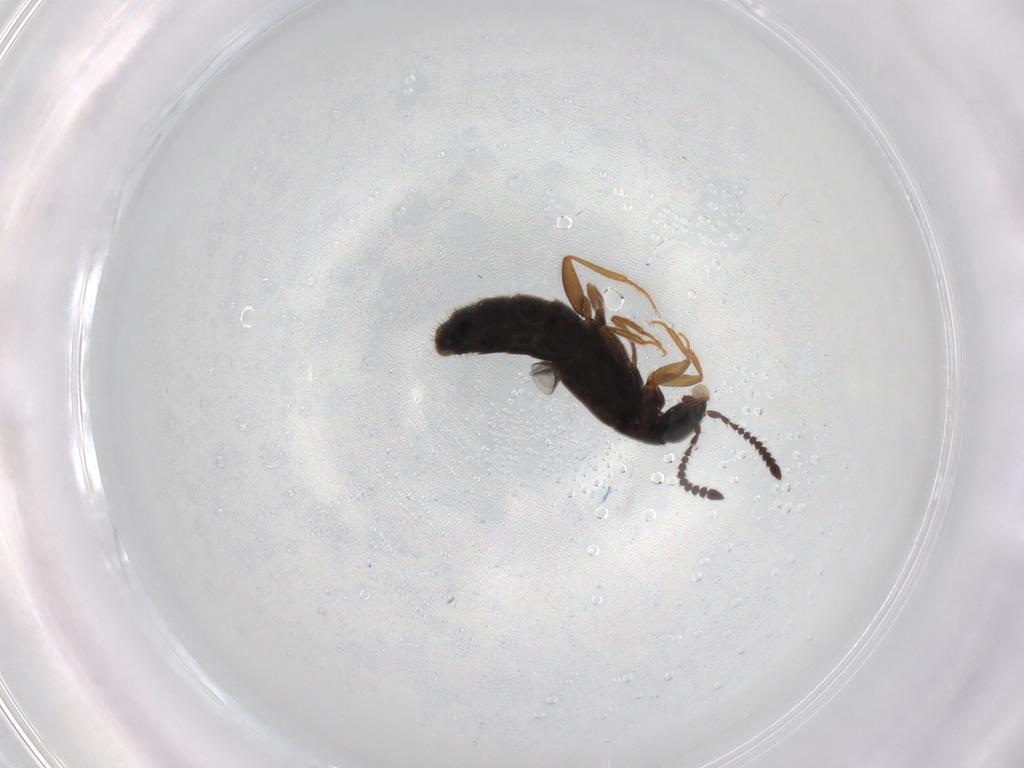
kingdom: Animalia
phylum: Arthropoda
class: Insecta
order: Coleoptera
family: Staphylinidae
